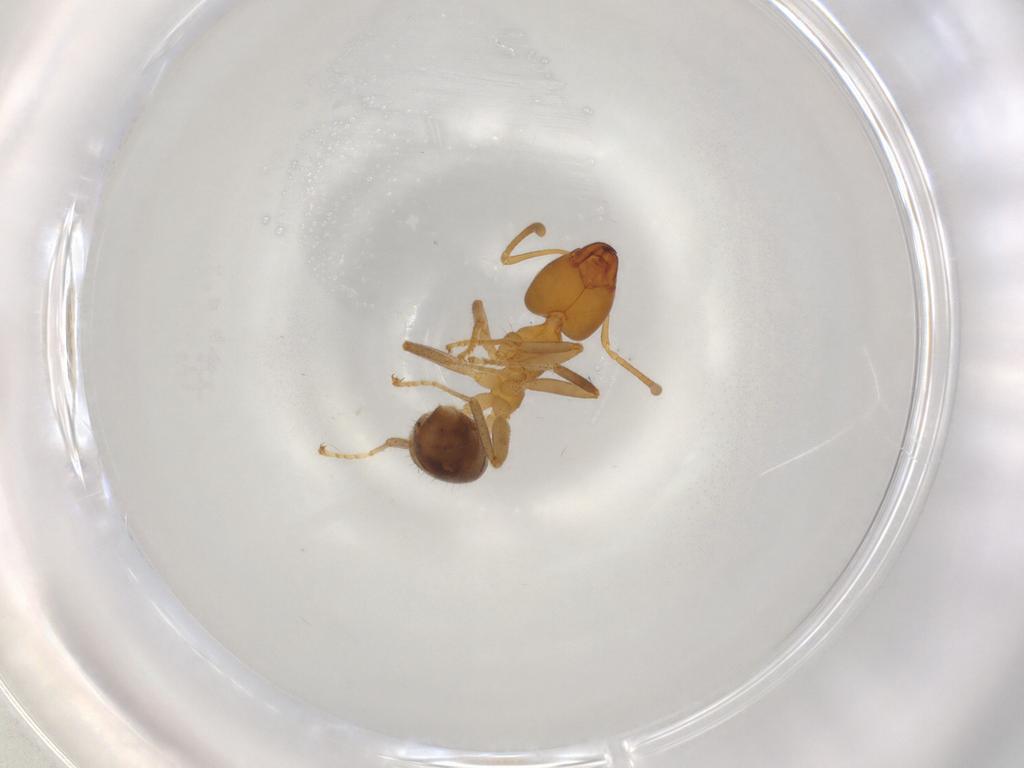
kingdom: Animalia
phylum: Arthropoda
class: Insecta
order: Hymenoptera
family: Formicidae
